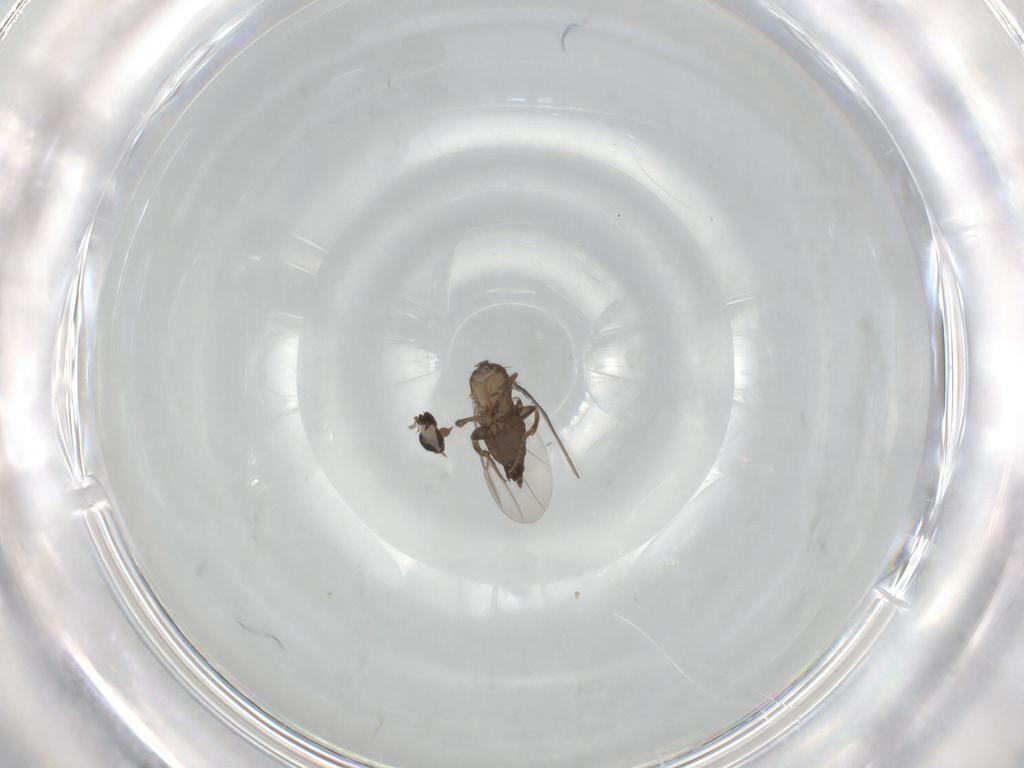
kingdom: Animalia
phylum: Arthropoda
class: Insecta
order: Diptera
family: Phoridae
